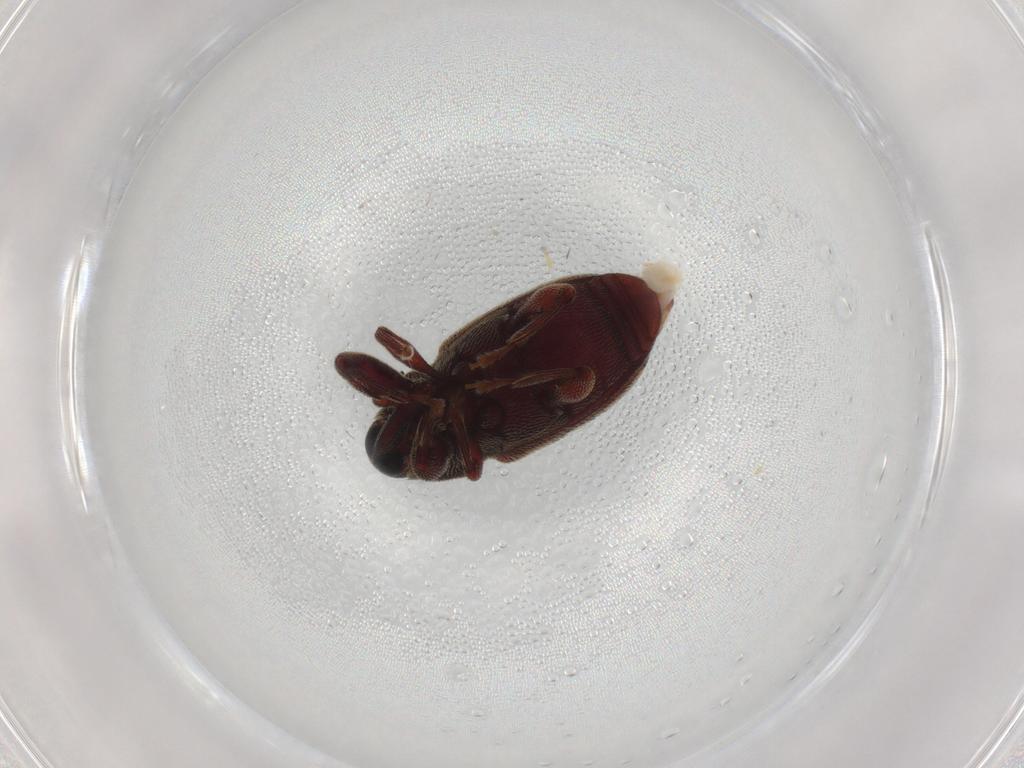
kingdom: Animalia
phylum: Arthropoda
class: Insecta
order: Coleoptera
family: Curculionidae
